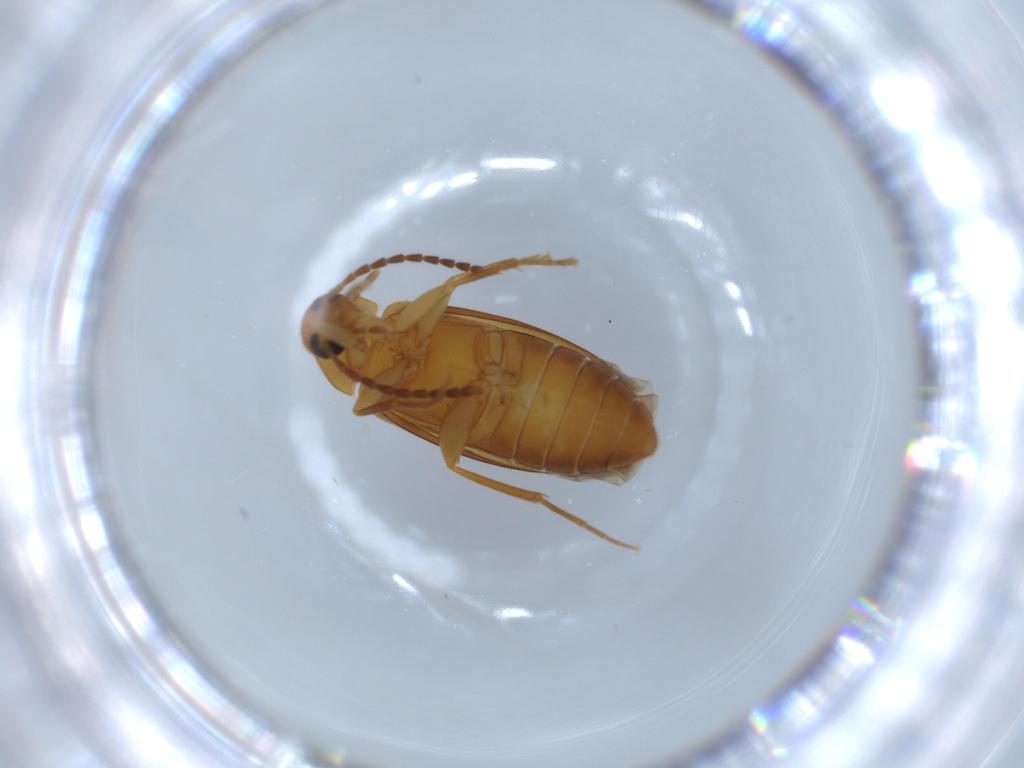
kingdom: Animalia
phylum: Arthropoda
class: Insecta
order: Coleoptera
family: Scraptiidae
